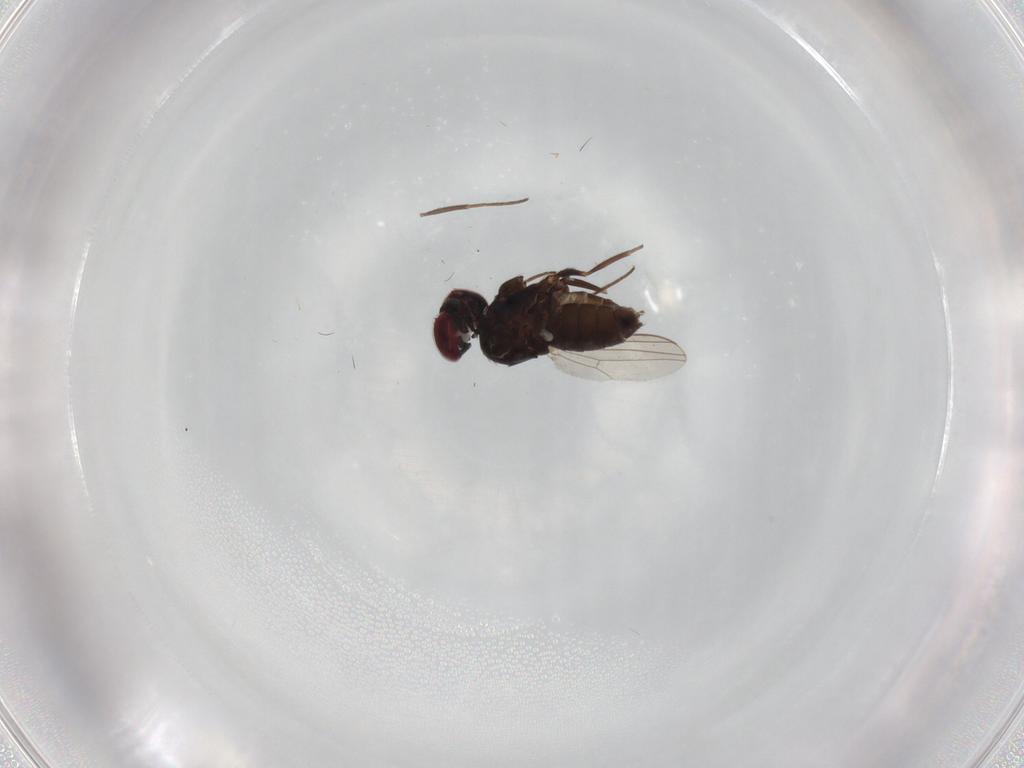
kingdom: Animalia
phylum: Arthropoda
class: Insecta
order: Diptera
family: Dolichopodidae
